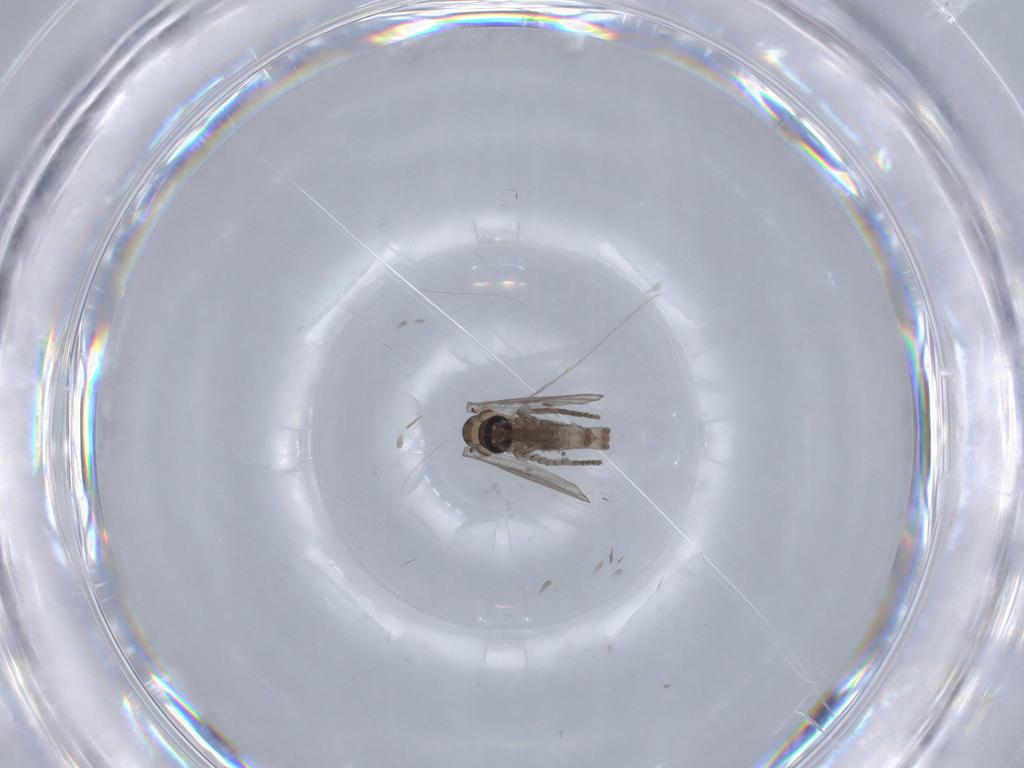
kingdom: Animalia
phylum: Arthropoda
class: Insecta
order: Diptera
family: Psychodidae
